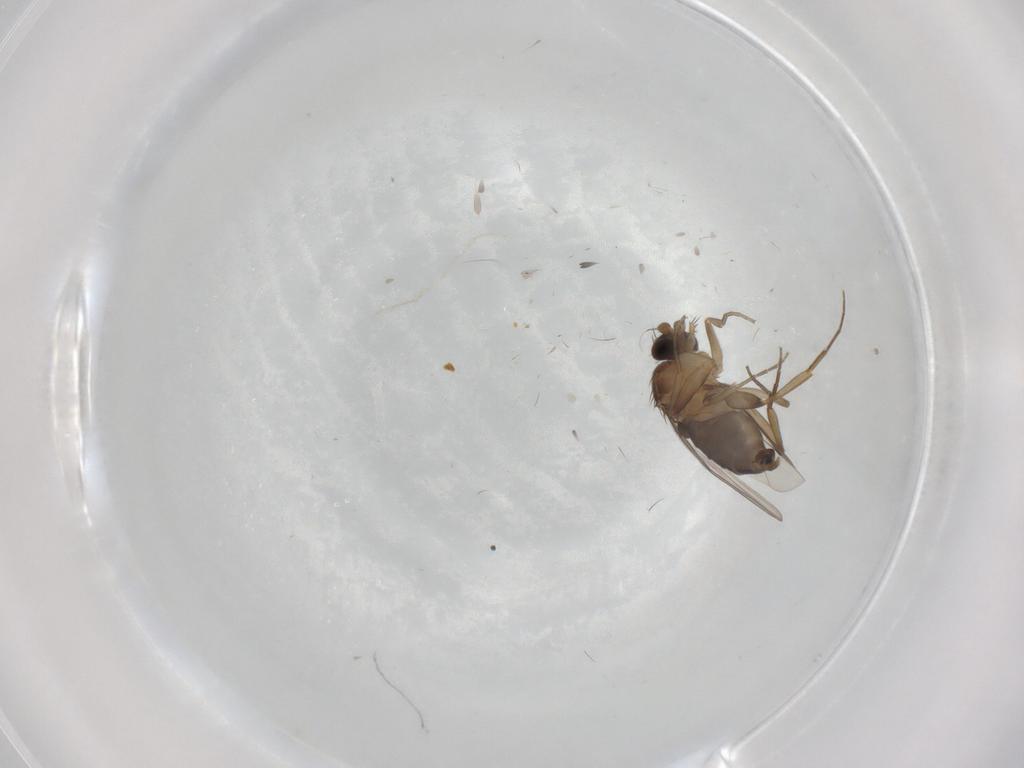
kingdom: Animalia
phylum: Arthropoda
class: Insecta
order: Diptera
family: Phoridae
